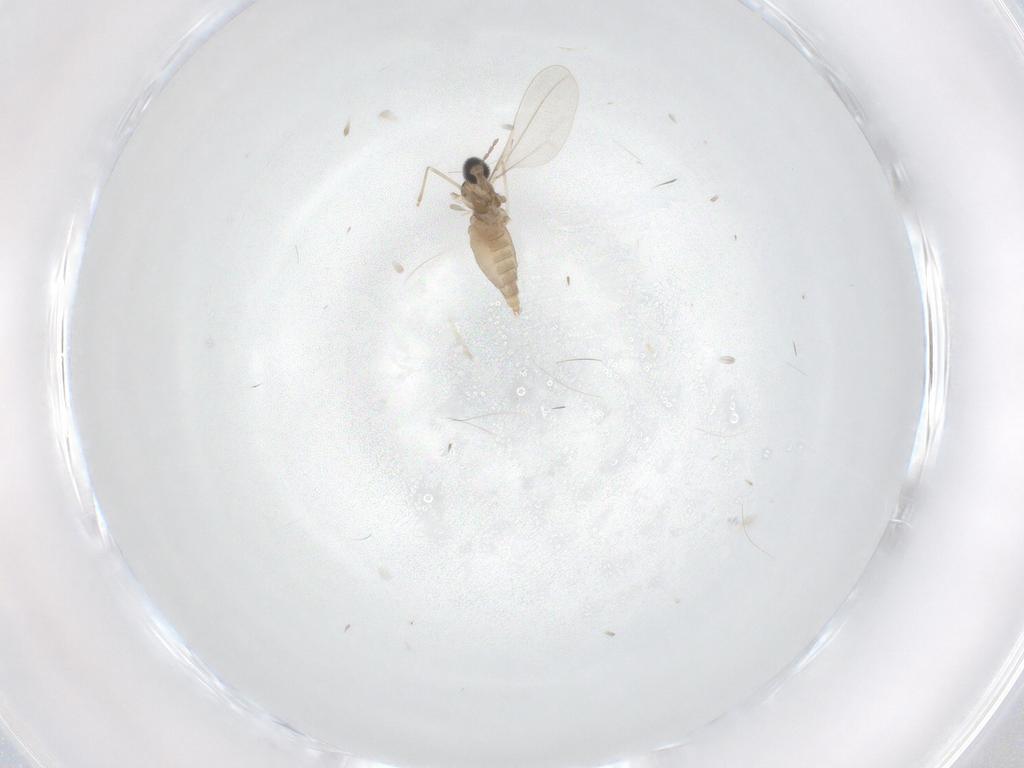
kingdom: Animalia
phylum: Arthropoda
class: Insecta
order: Diptera
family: Cecidomyiidae
